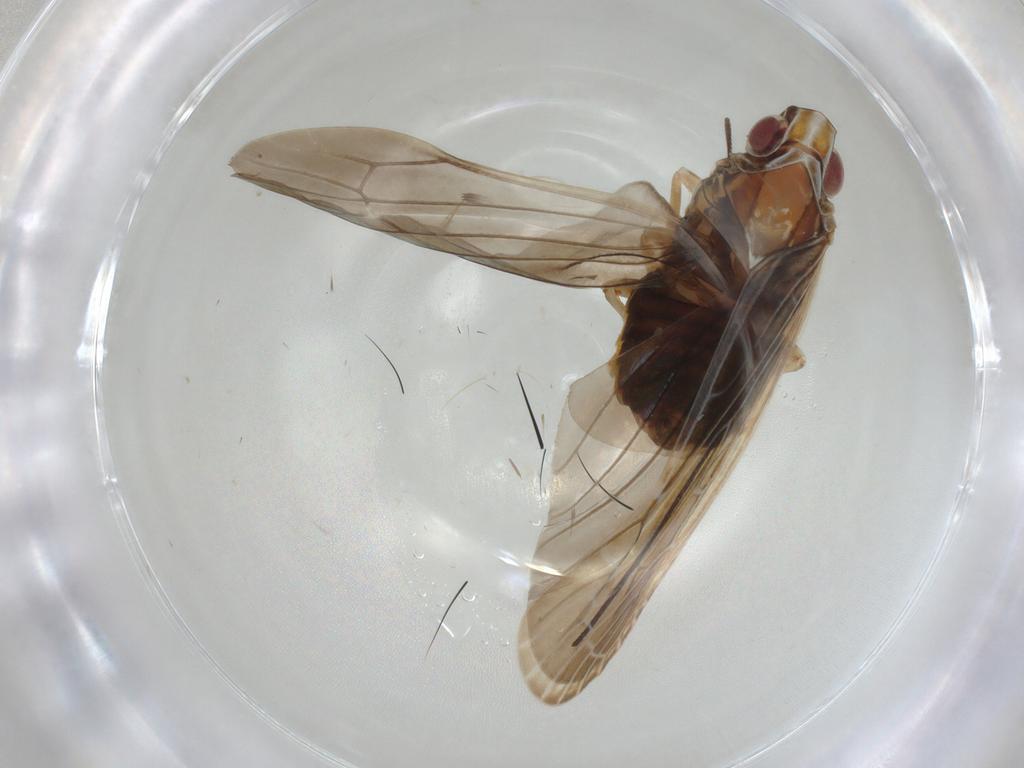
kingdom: Animalia
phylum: Arthropoda
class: Insecta
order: Hemiptera
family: Achilidae
